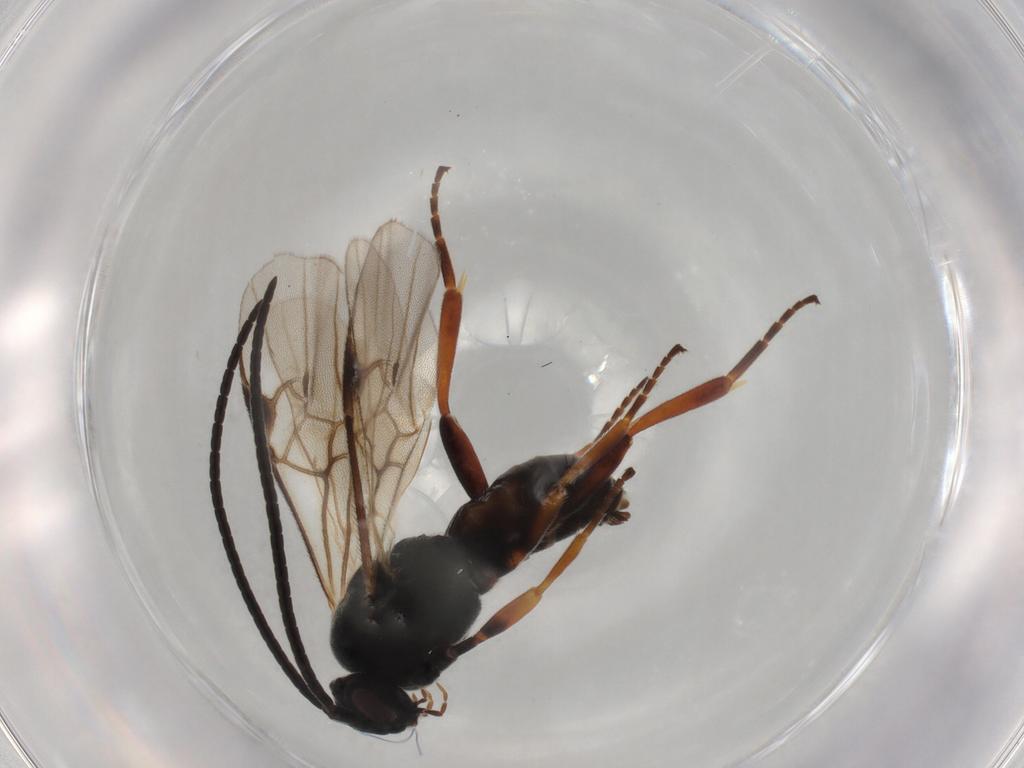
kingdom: Animalia
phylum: Arthropoda
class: Insecta
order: Hymenoptera
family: Braconidae
